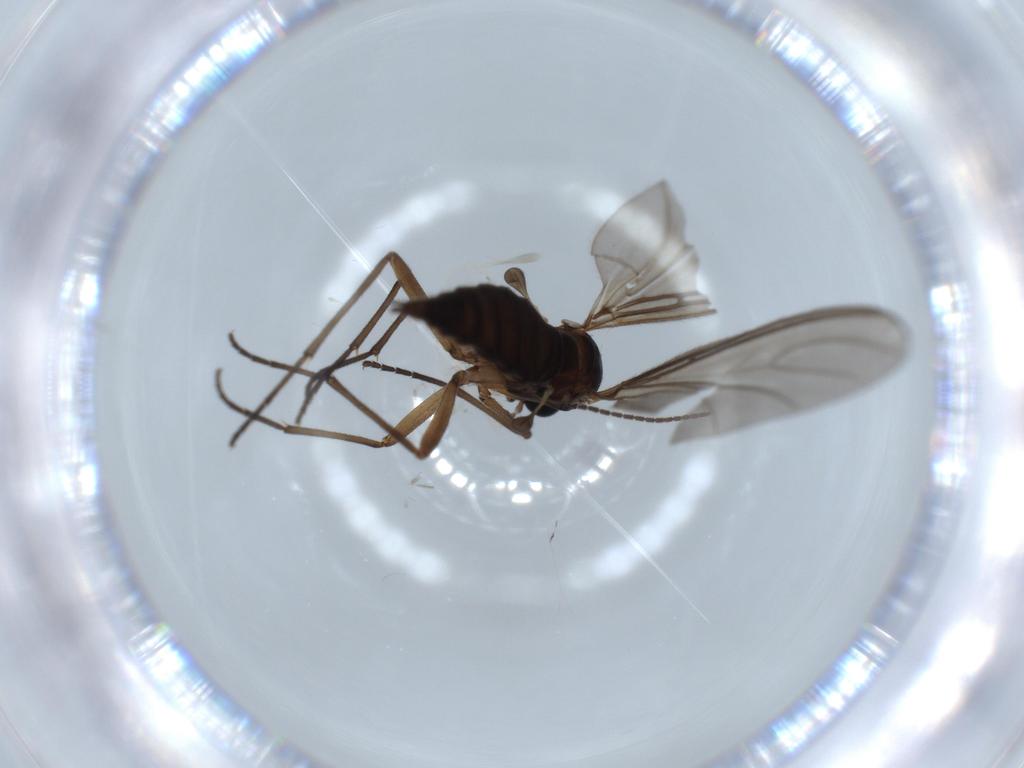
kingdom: Animalia
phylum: Arthropoda
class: Insecta
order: Diptera
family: Sciaridae
